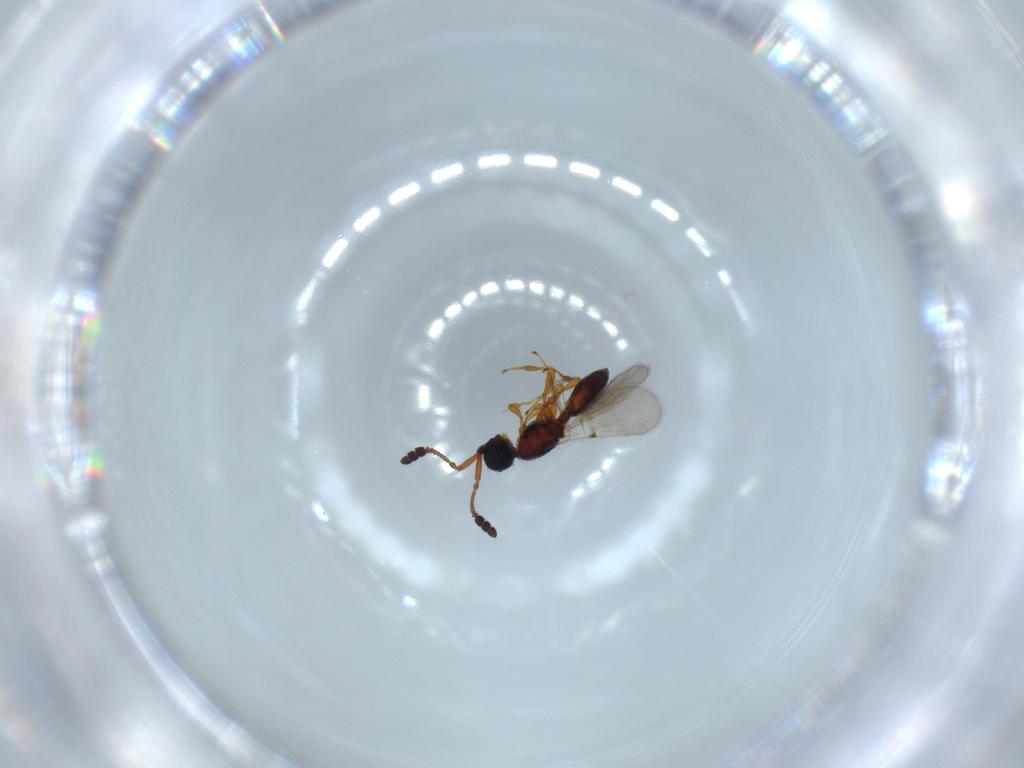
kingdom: Animalia
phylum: Arthropoda
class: Insecta
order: Hymenoptera
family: Diapriidae
